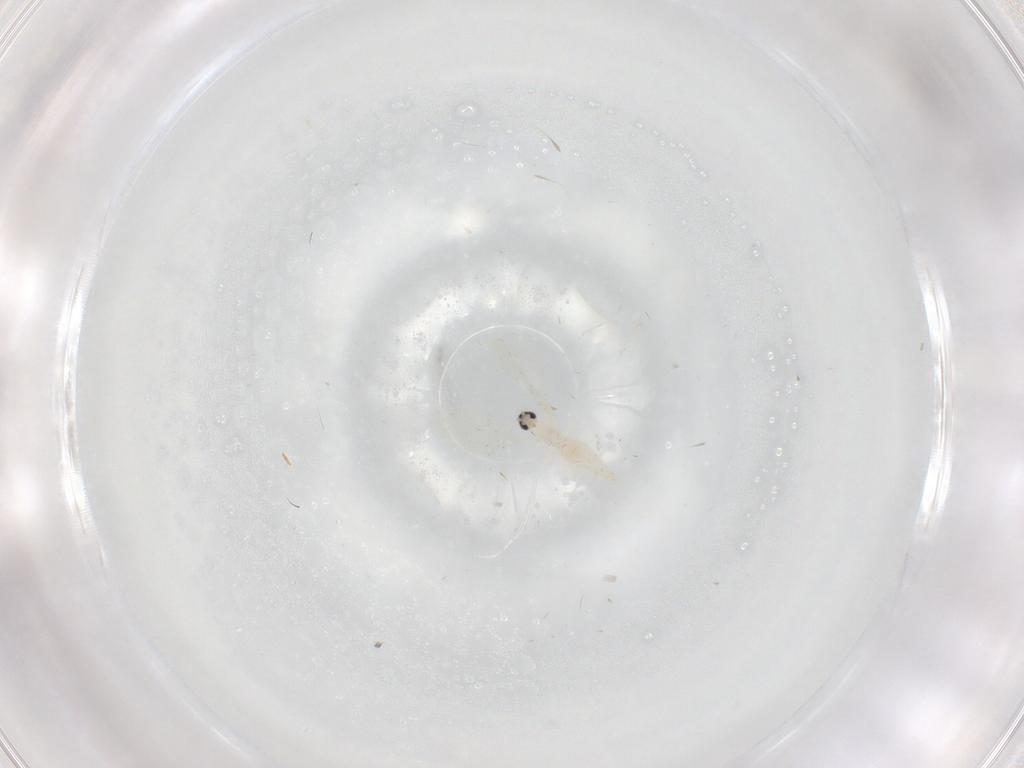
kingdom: Animalia
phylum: Arthropoda
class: Insecta
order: Diptera
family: Cecidomyiidae
